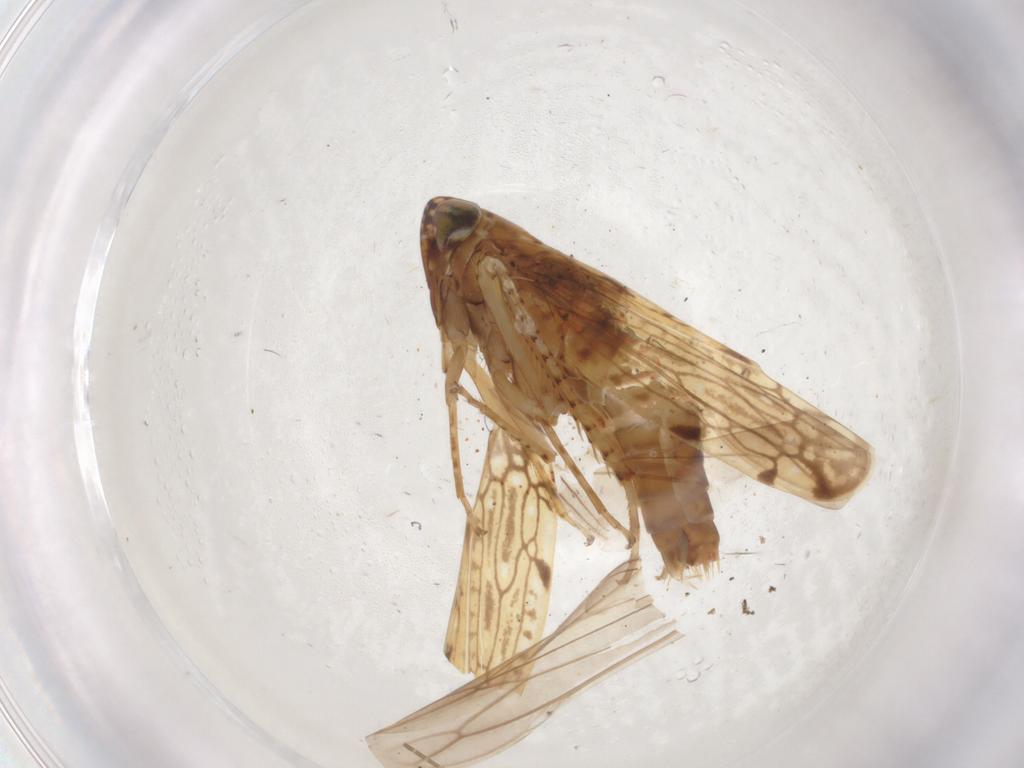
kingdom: Animalia
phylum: Arthropoda
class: Insecta
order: Hemiptera
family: Cicadellidae
